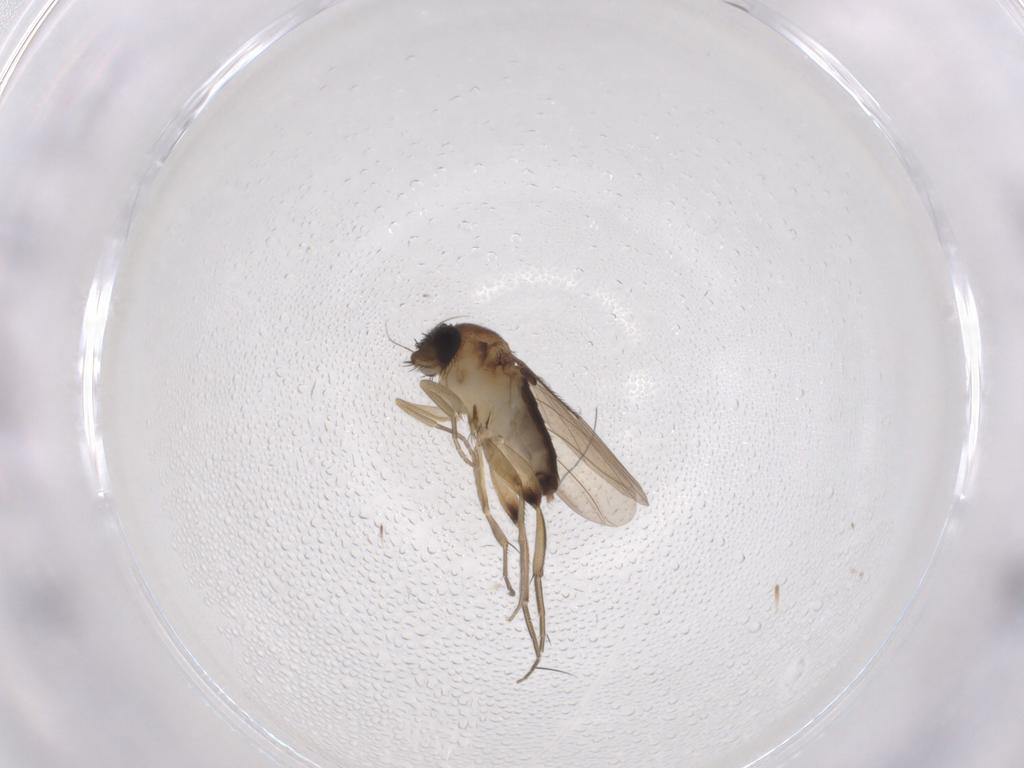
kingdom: Animalia
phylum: Arthropoda
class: Insecta
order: Diptera
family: Phoridae
